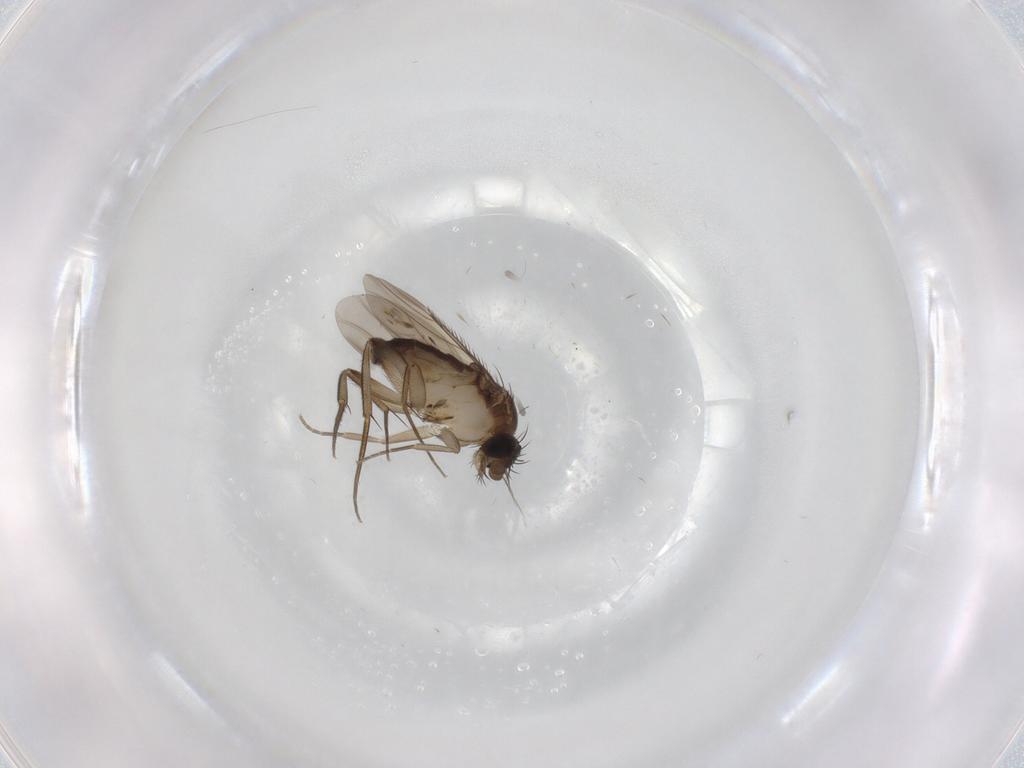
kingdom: Animalia
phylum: Arthropoda
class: Insecta
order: Diptera
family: Phoridae
